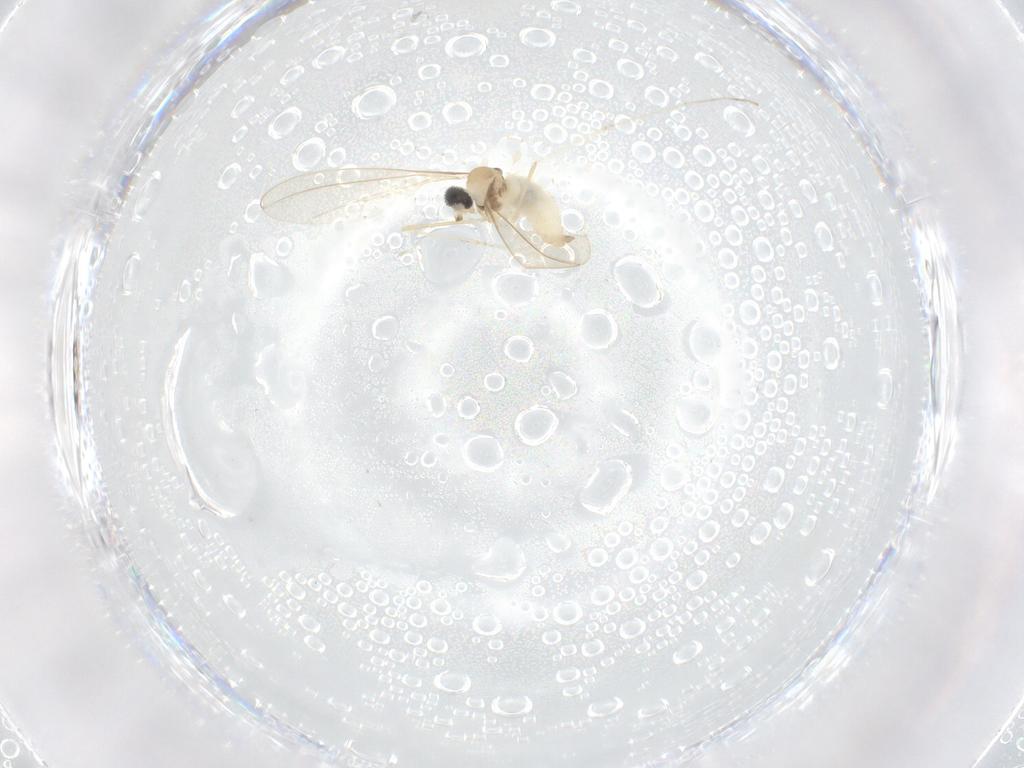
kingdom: Animalia
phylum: Arthropoda
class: Insecta
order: Diptera
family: Cecidomyiidae
